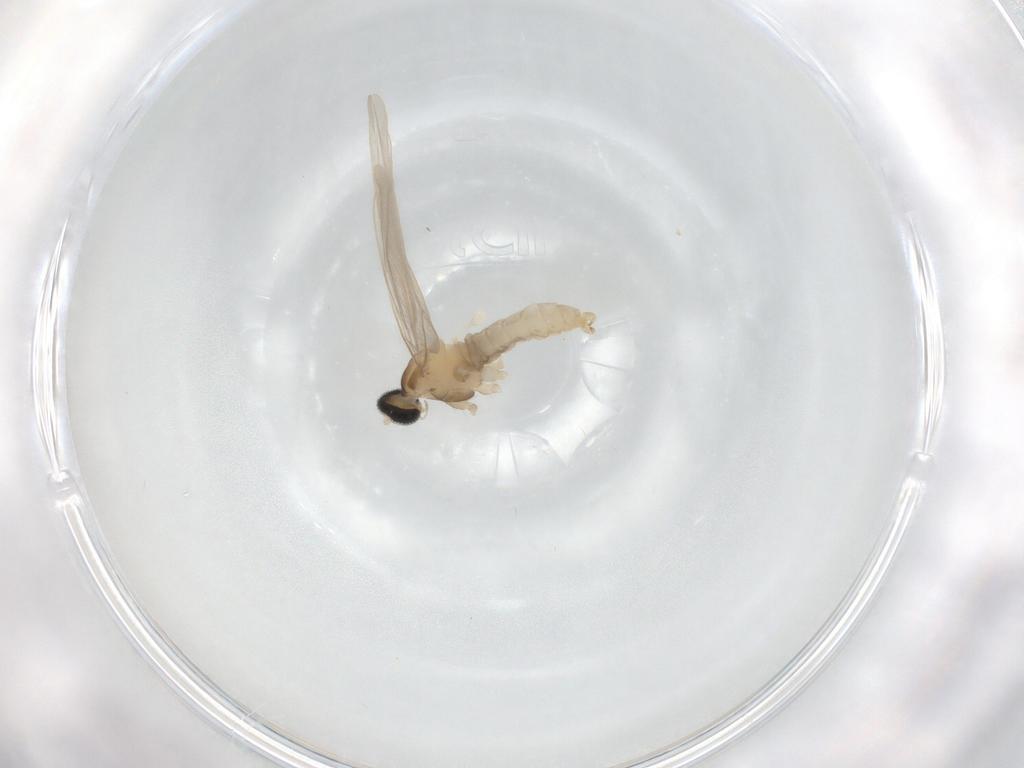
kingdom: Animalia
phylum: Arthropoda
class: Insecta
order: Diptera
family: Cecidomyiidae
